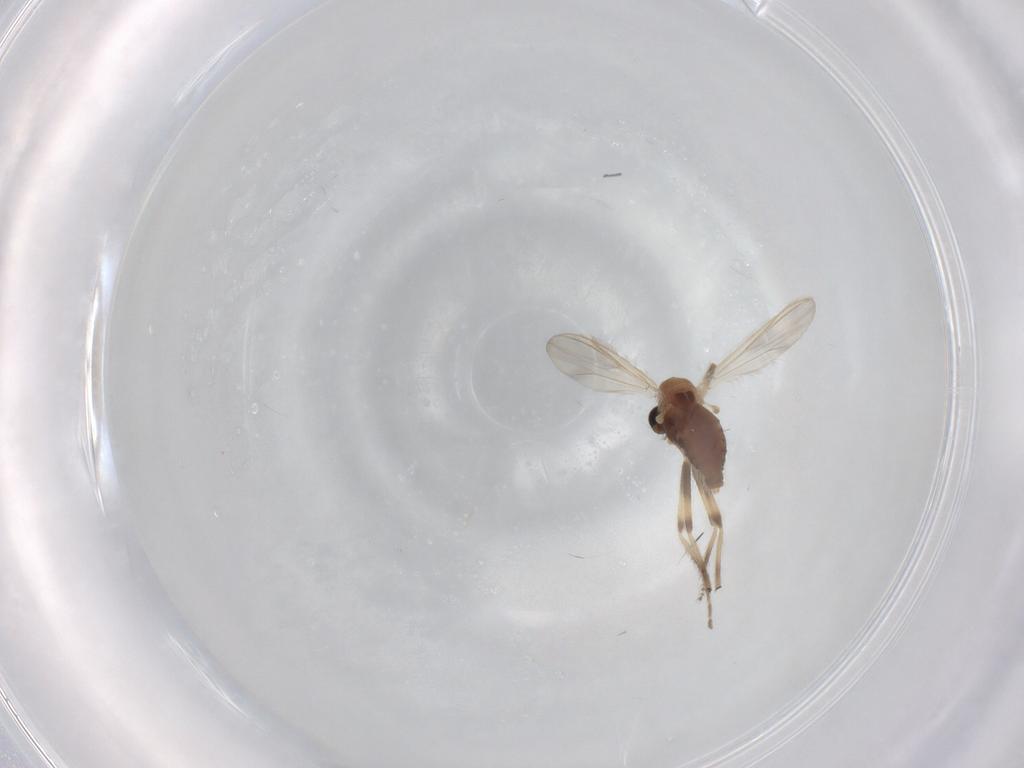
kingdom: Animalia
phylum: Arthropoda
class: Insecta
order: Diptera
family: Chironomidae
